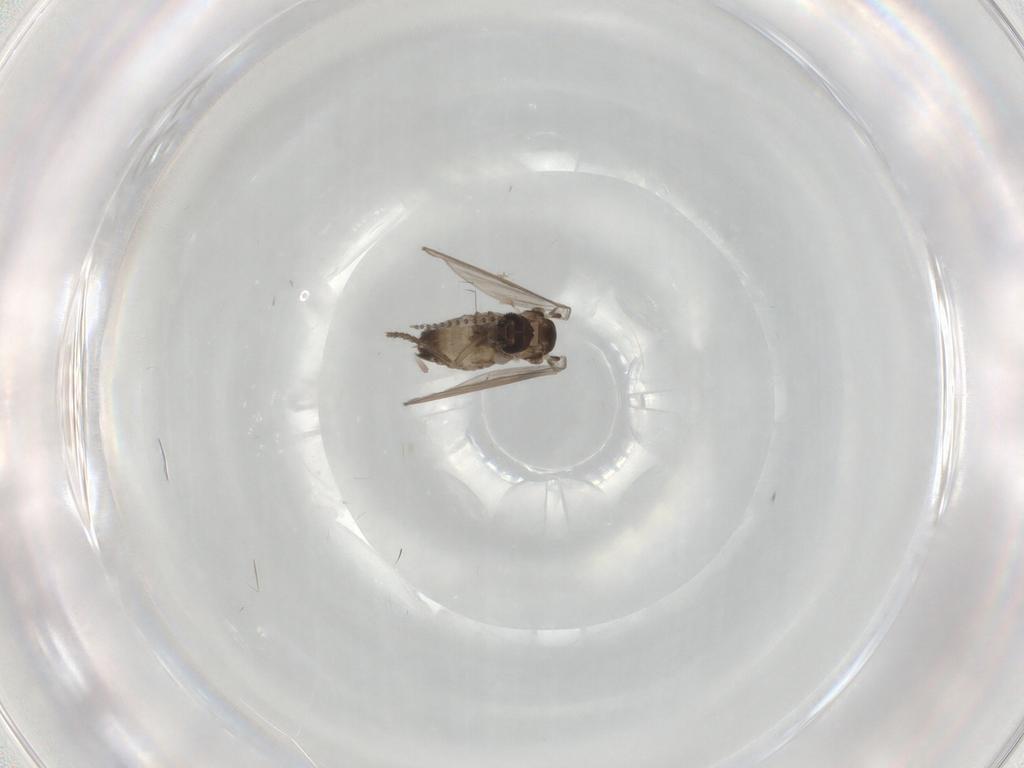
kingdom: Animalia
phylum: Arthropoda
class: Insecta
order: Diptera
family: Psychodidae
